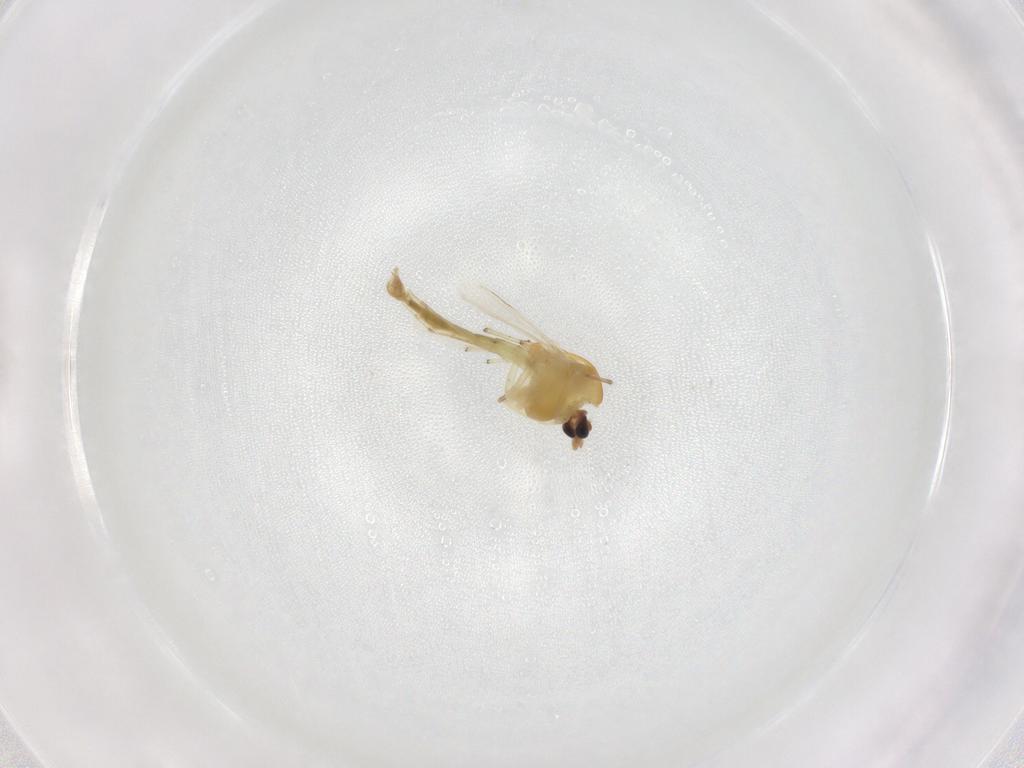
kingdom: Animalia
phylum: Arthropoda
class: Insecta
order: Diptera
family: Chironomidae
